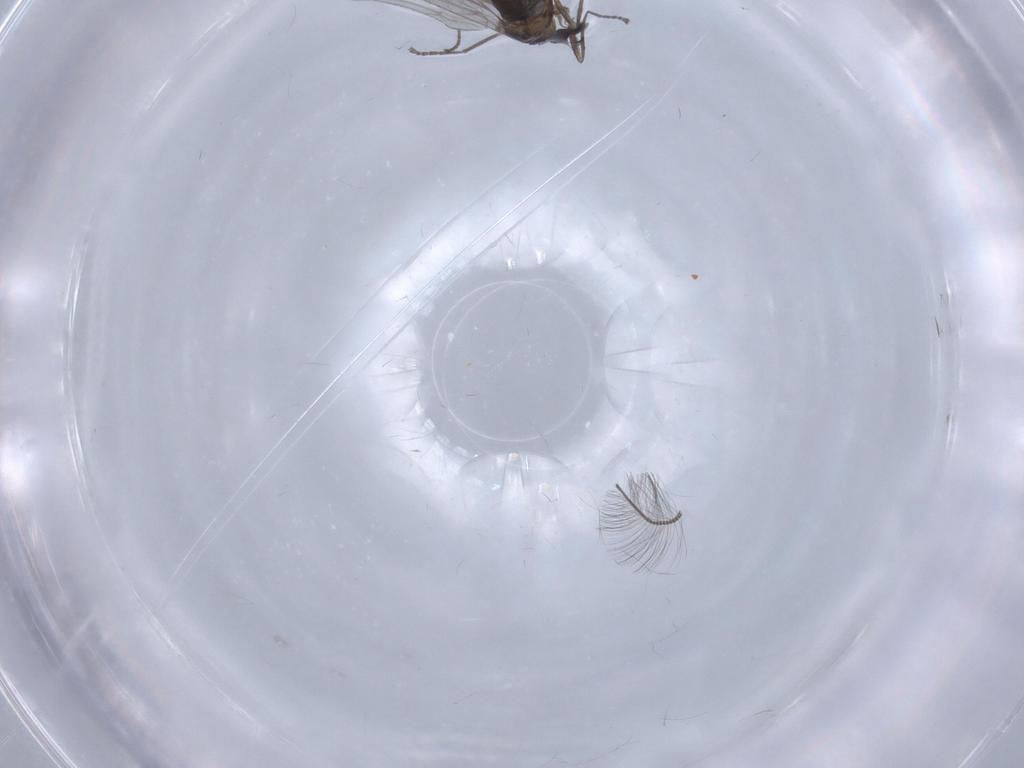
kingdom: Animalia
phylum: Arthropoda
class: Insecta
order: Diptera
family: Cecidomyiidae
